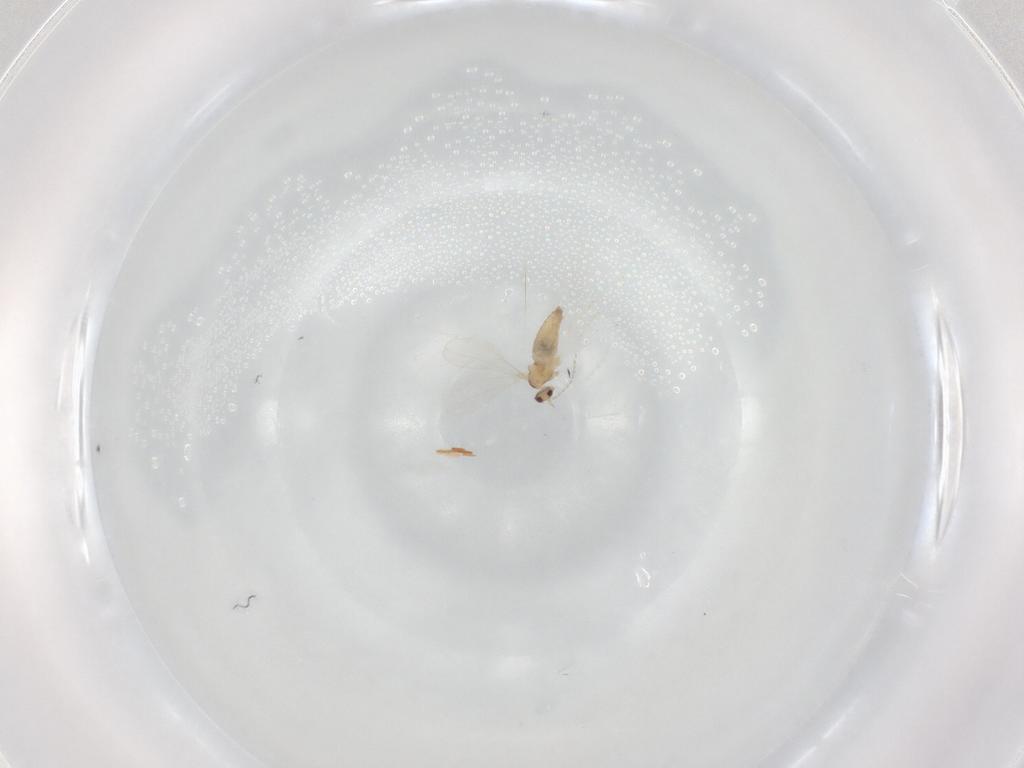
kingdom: Animalia
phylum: Arthropoda
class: Insecta
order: Diptera
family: Cecidomyiidae
